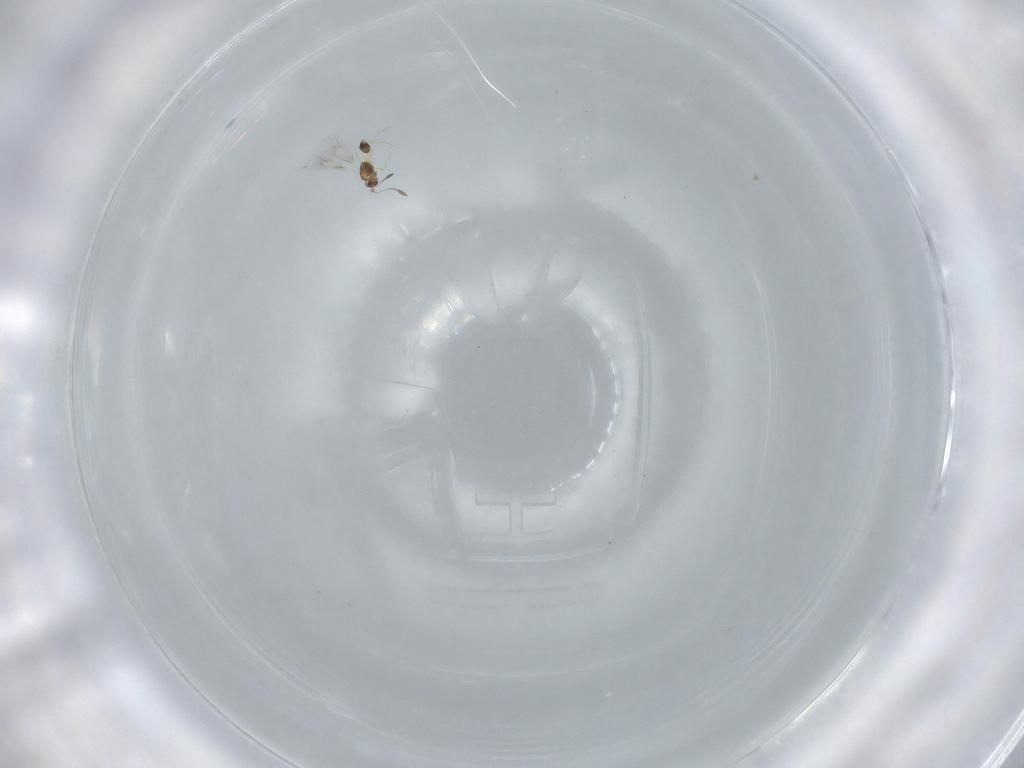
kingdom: Animalia
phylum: Arthropoda
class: Insecta
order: Hymenoptera
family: Mymarommatidae
